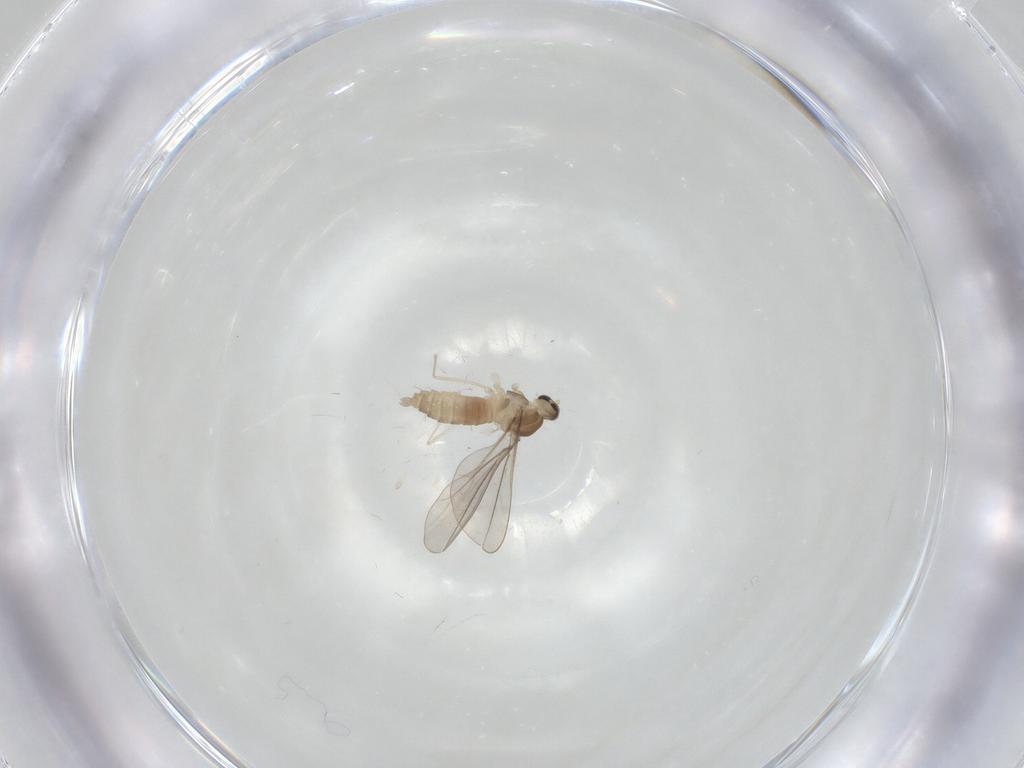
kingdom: Animalia
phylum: Arthropoda
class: Insecta
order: Diptera
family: Cecidomyiidae
